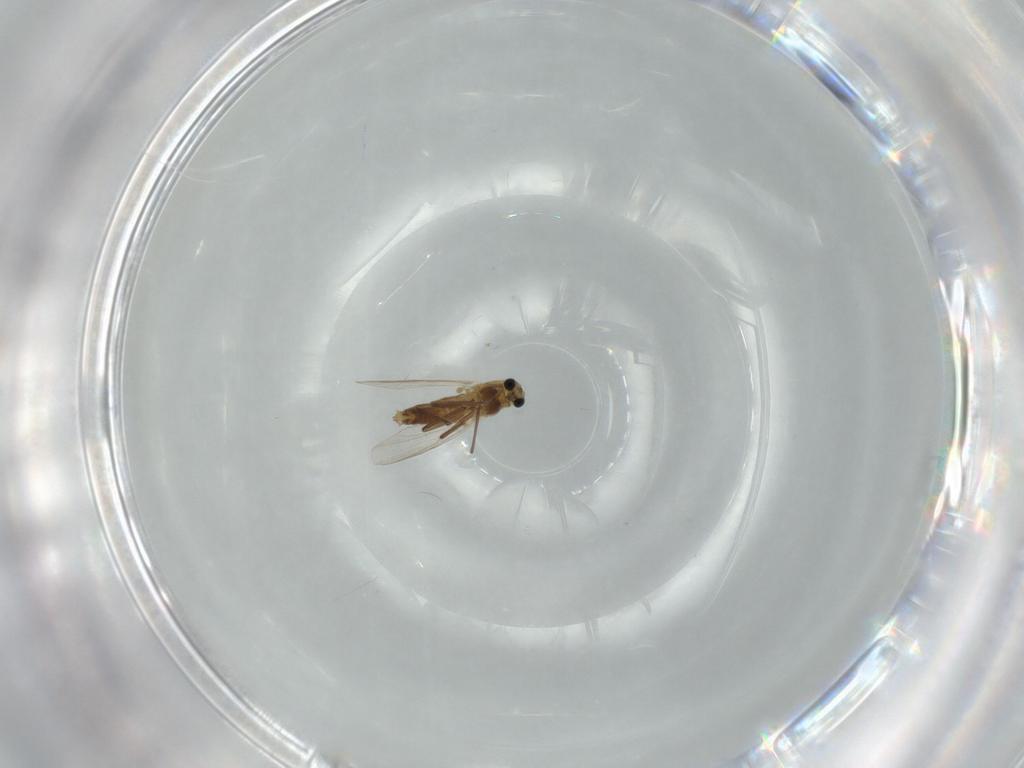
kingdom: Animalia
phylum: Arthropoda
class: Insecta
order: Diptera
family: Chironomidae
